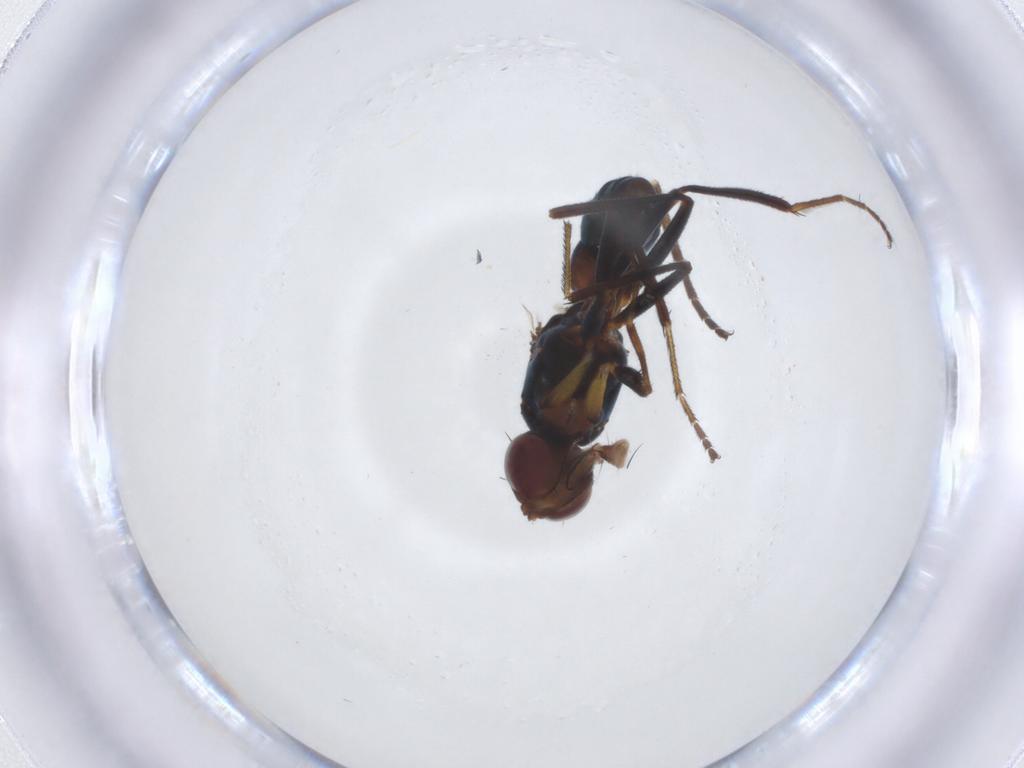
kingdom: Animalia
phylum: Arthropoda
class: Insecta
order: Diptera
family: Sepsidae
